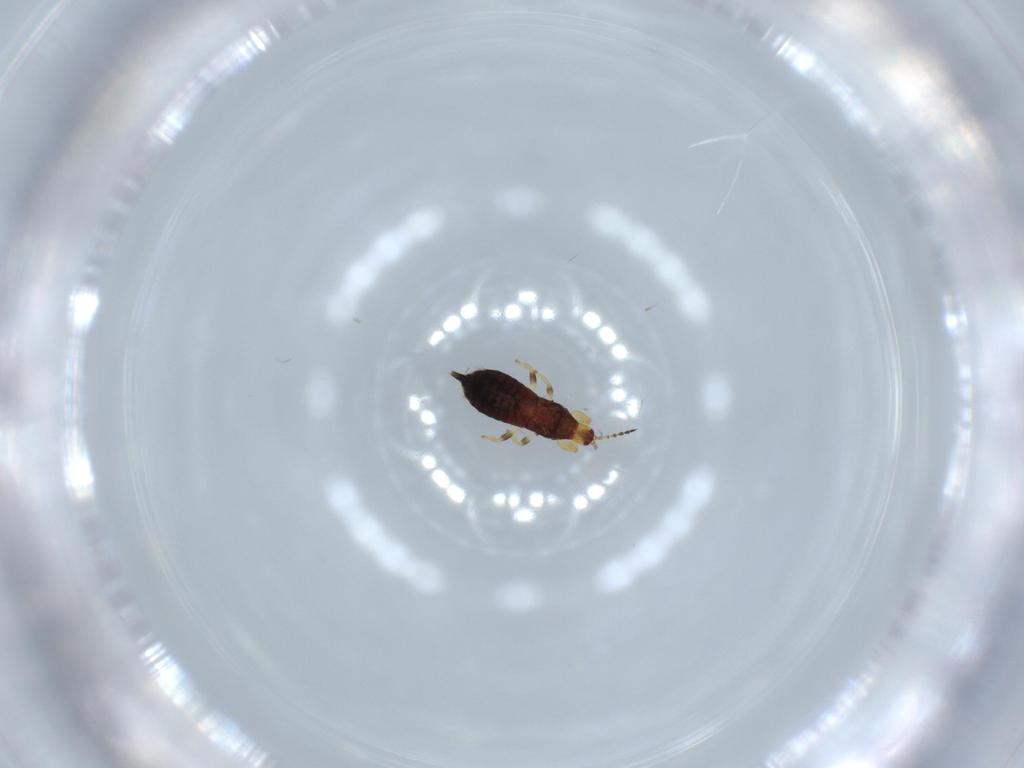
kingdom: Animalia
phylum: Arthropoda
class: Insecta
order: Thysanoptera
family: Phlaeothripidae
